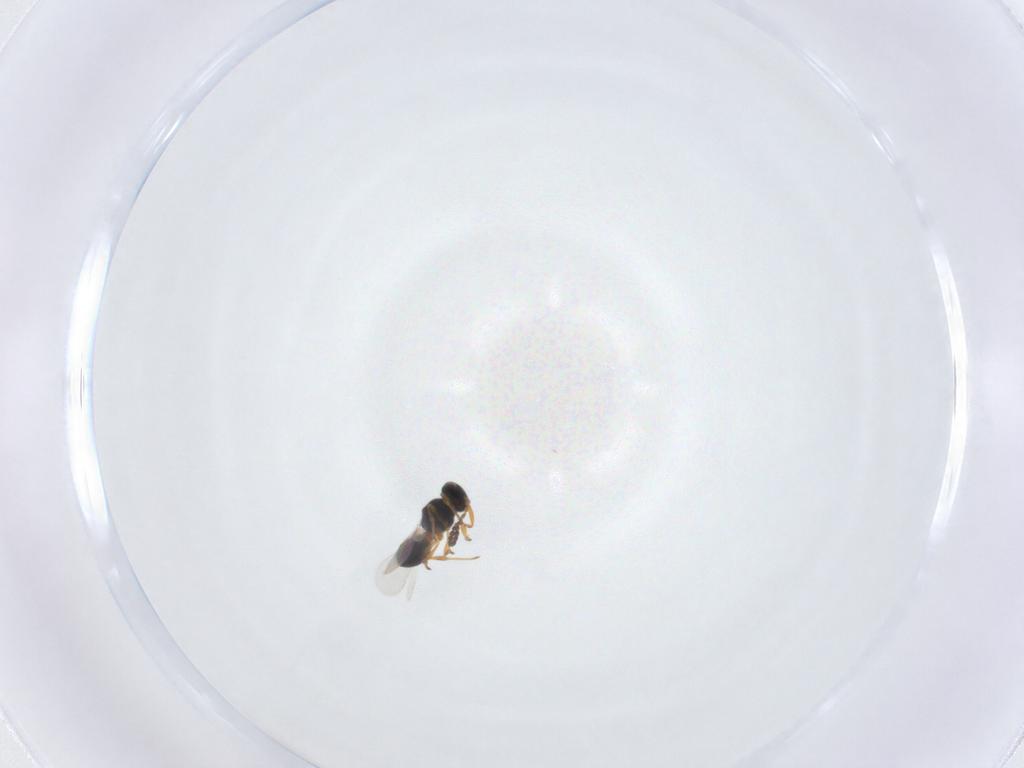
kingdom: Animalia
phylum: Arthropoda
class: Insecta
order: Hymenoptera
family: Platygastridae
